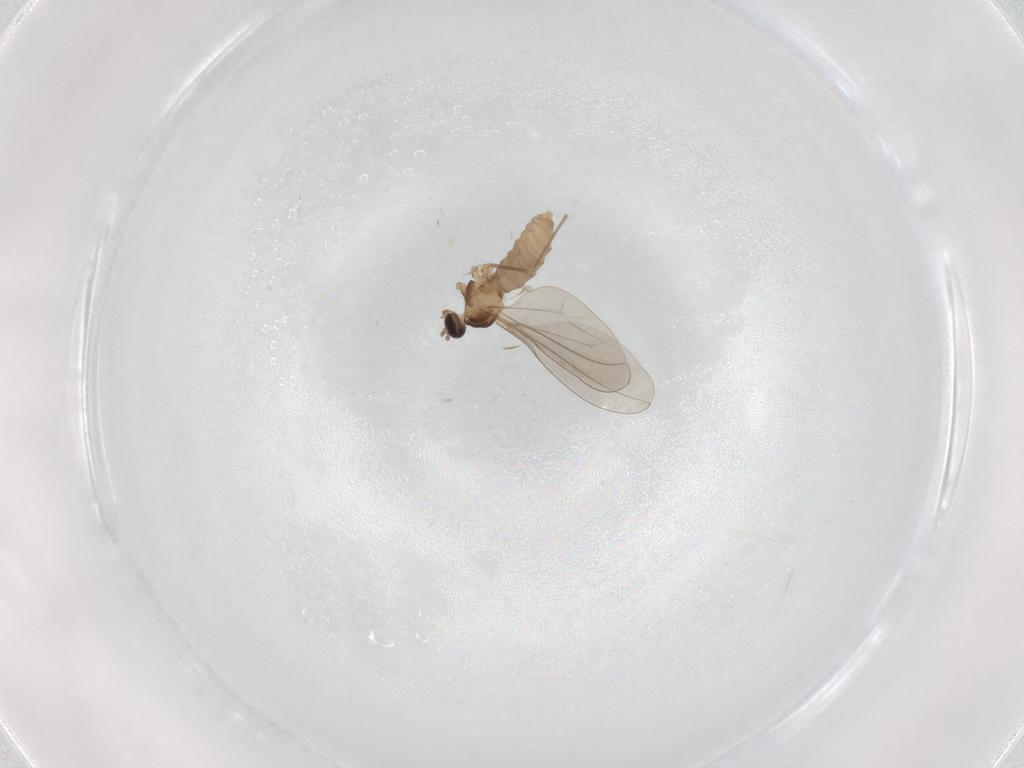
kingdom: Animalia
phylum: Arthropoda
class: Insecta
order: Diptera
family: Cecidomyiidae
